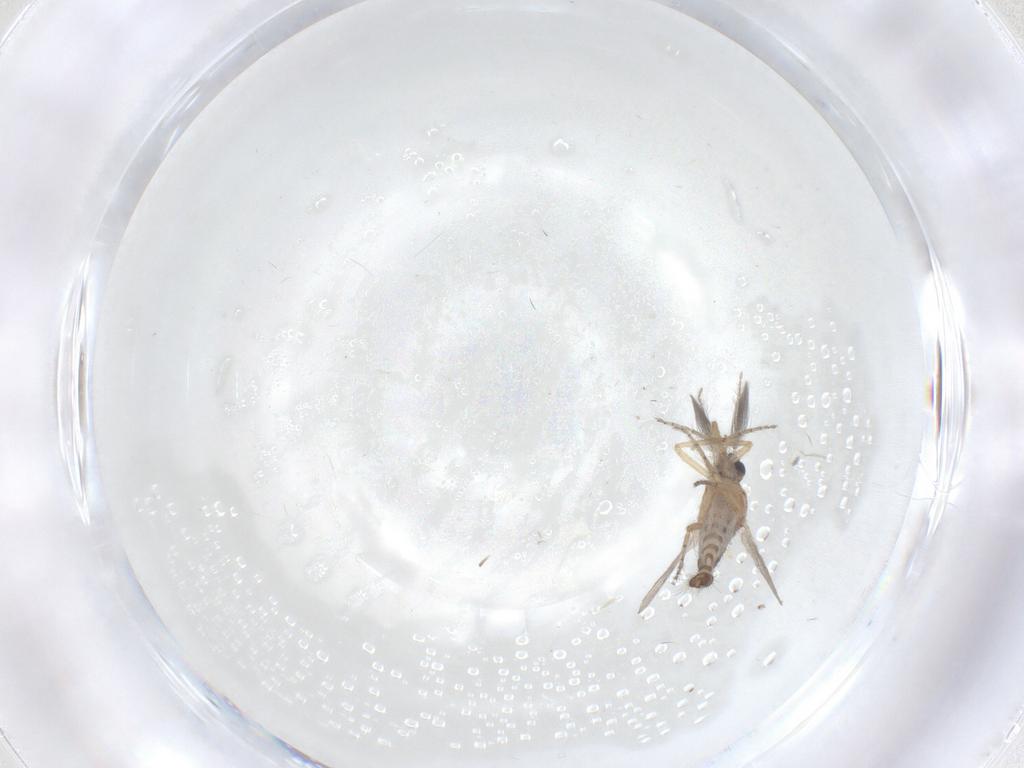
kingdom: Animalia
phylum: Arthropoda
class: Insecta
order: Diptera
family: Ceratopogonidae
